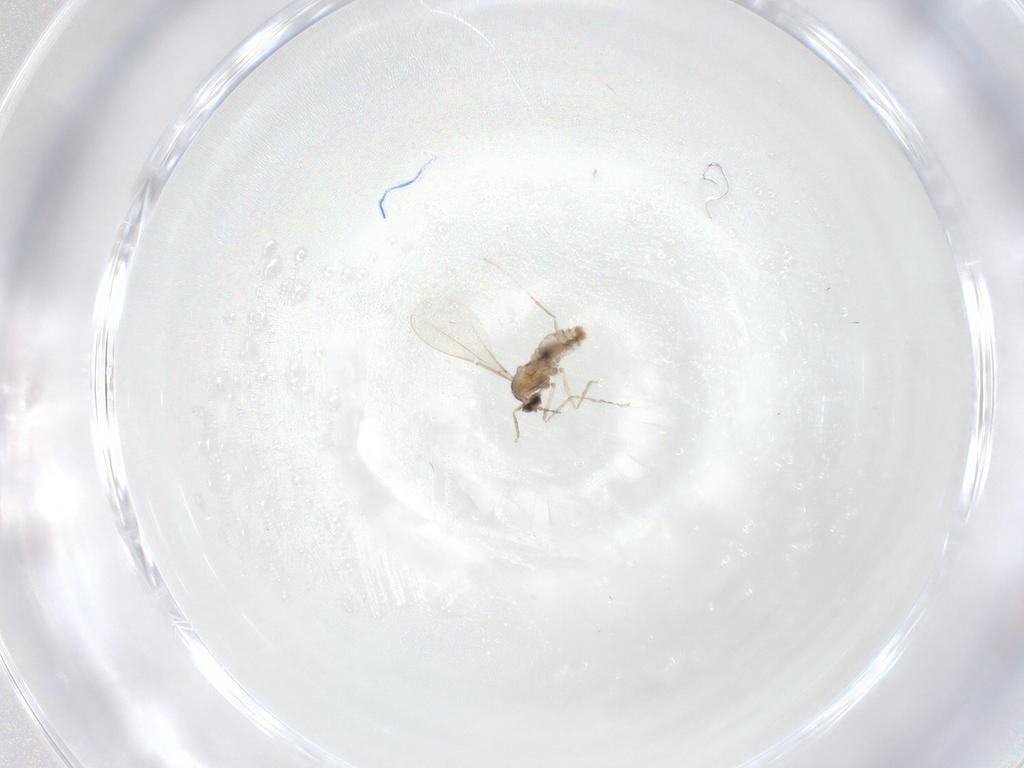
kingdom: Animalia
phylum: Arthropoda
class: Insecta
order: Diptera
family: Cecidomyiidae
